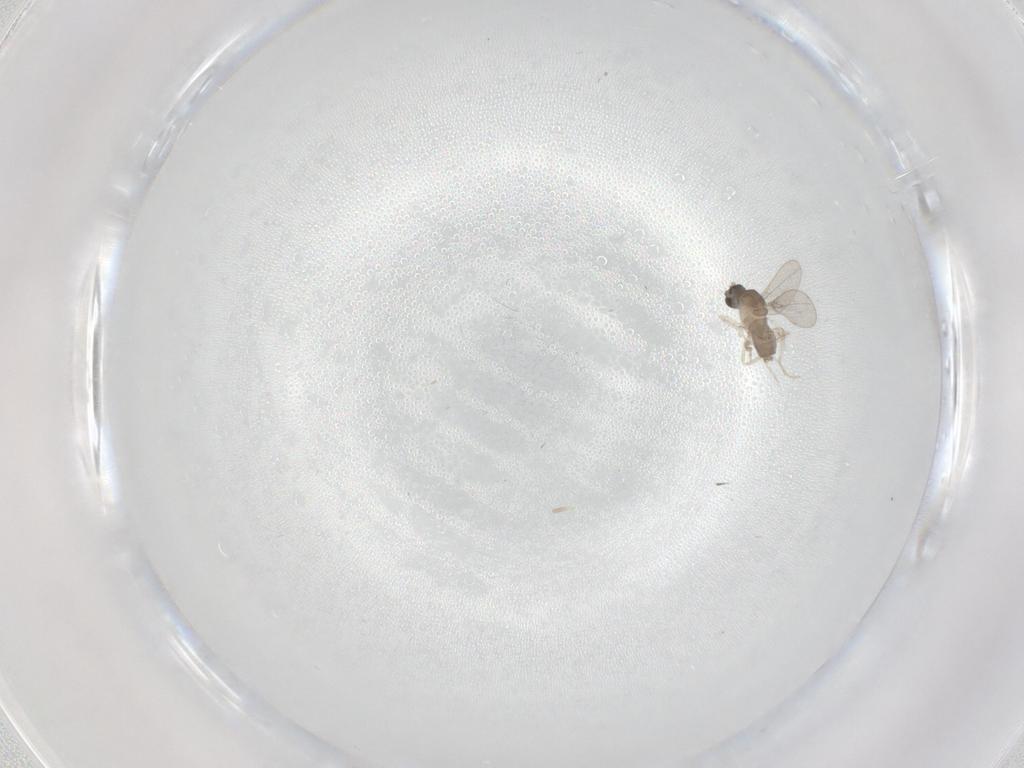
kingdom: Animalia
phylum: Arthropoda
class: Insecta
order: Diptera
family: Cecidomyiidae
